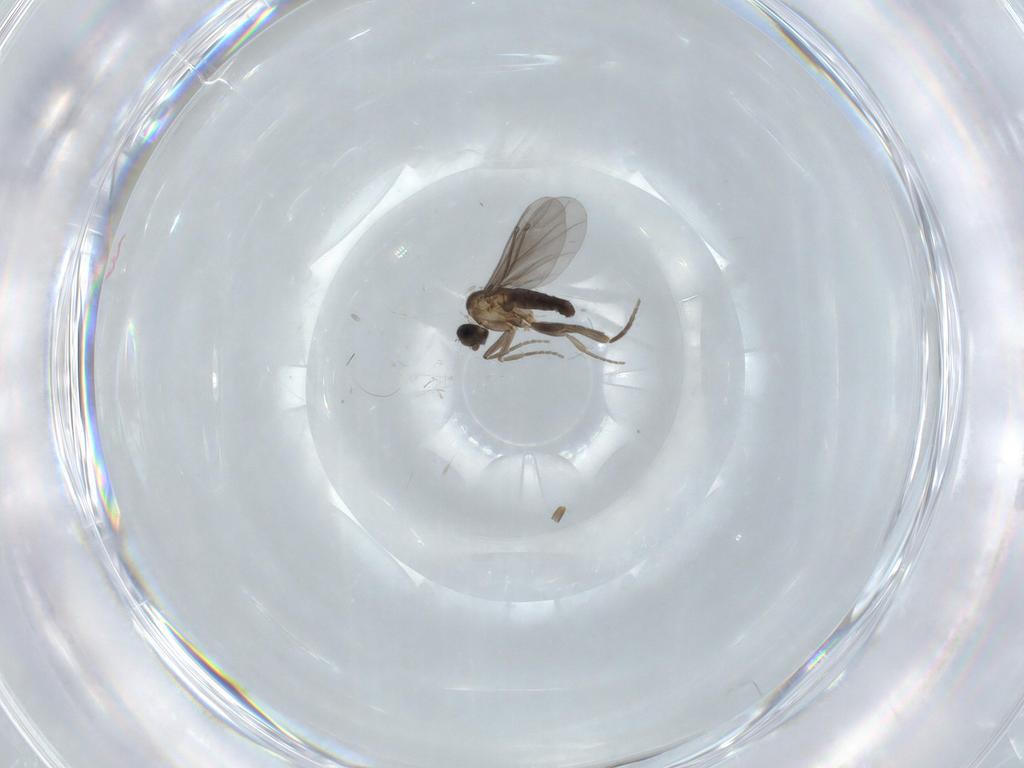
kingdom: Animalia
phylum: Arthropoda
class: Insecta
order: Diptera
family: Phoridae
